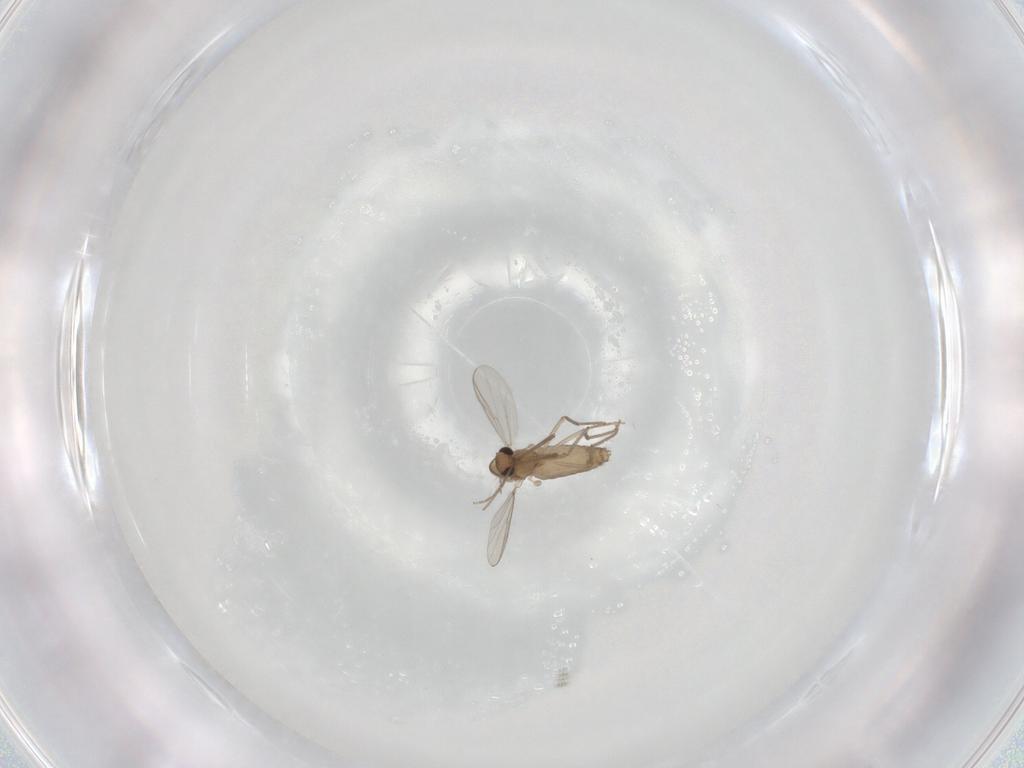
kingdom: Animalia
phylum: Arthropoda
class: Insecta
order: Diptera
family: Chironomidae
